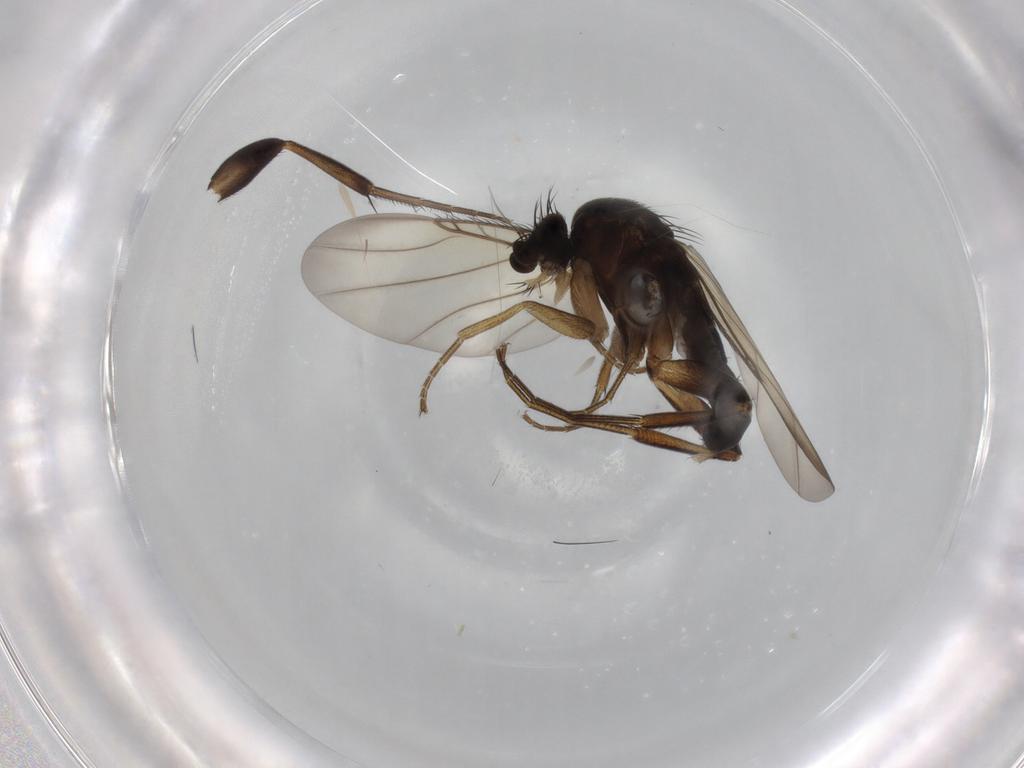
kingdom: Animalia
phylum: Arthropoda
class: Insecta
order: Diptera
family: Phoridae
